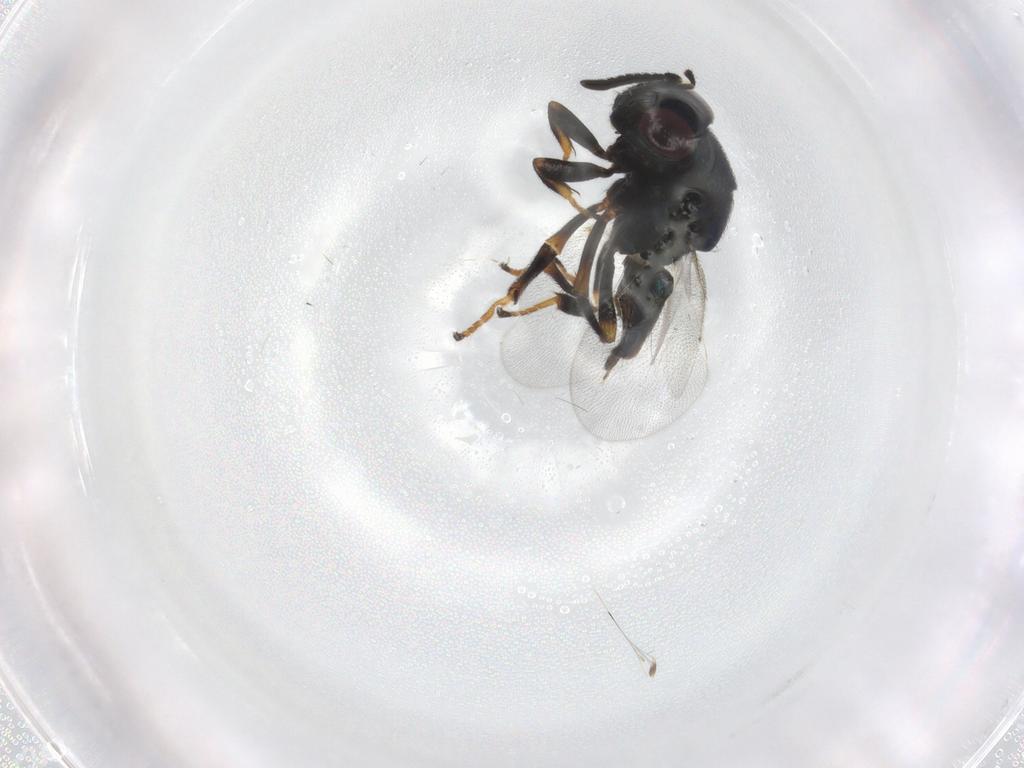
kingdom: Animalia
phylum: Arthropoda
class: Insecta
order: Hymenoptera
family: Encyrtidae
